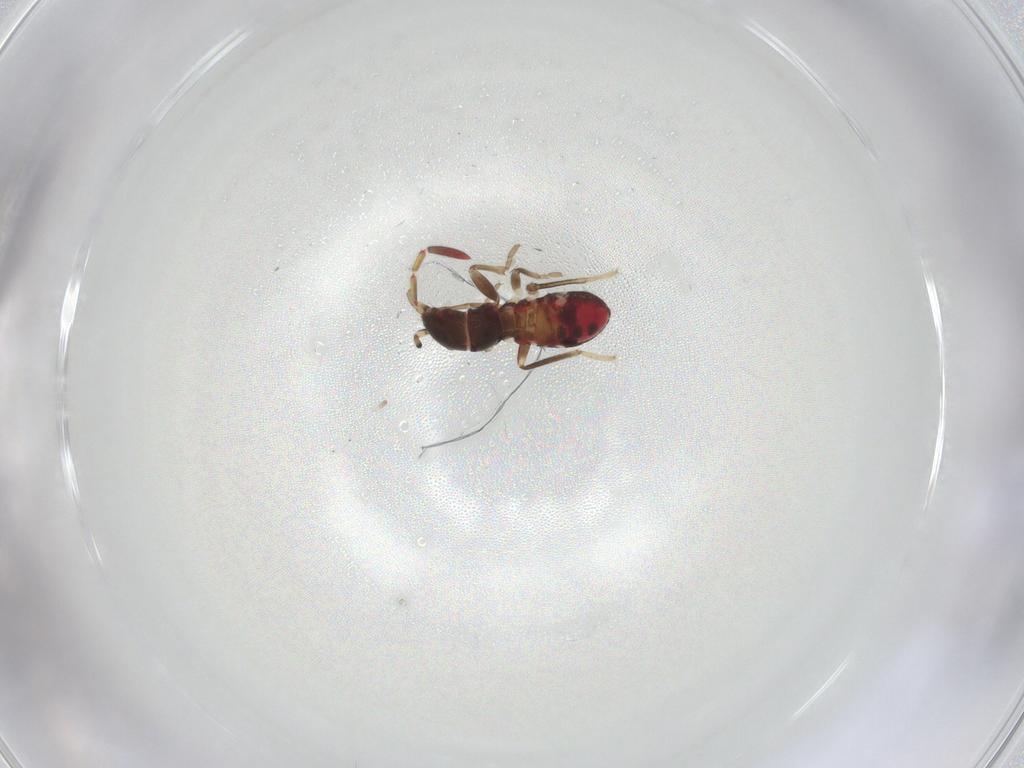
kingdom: Animalia
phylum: Arthropoda
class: Insecta
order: Hemiptera
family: Rhyparochromidae
